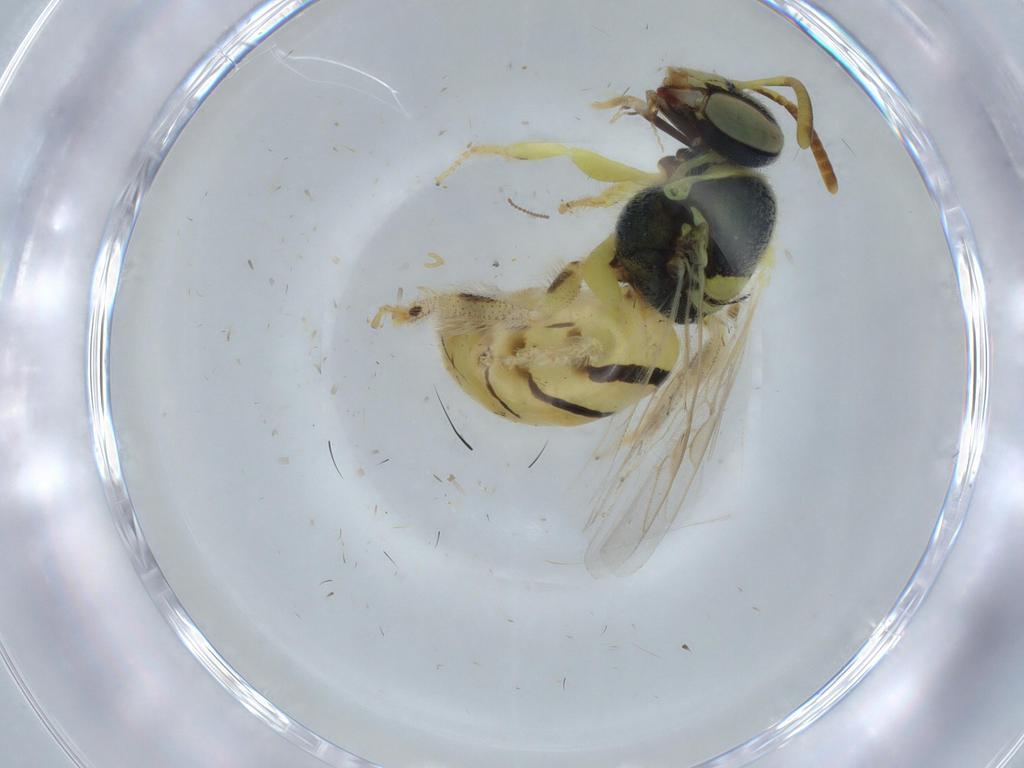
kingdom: Animalia
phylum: Arthropoda
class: Insecta
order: Hymenoptera
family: Halictidae
